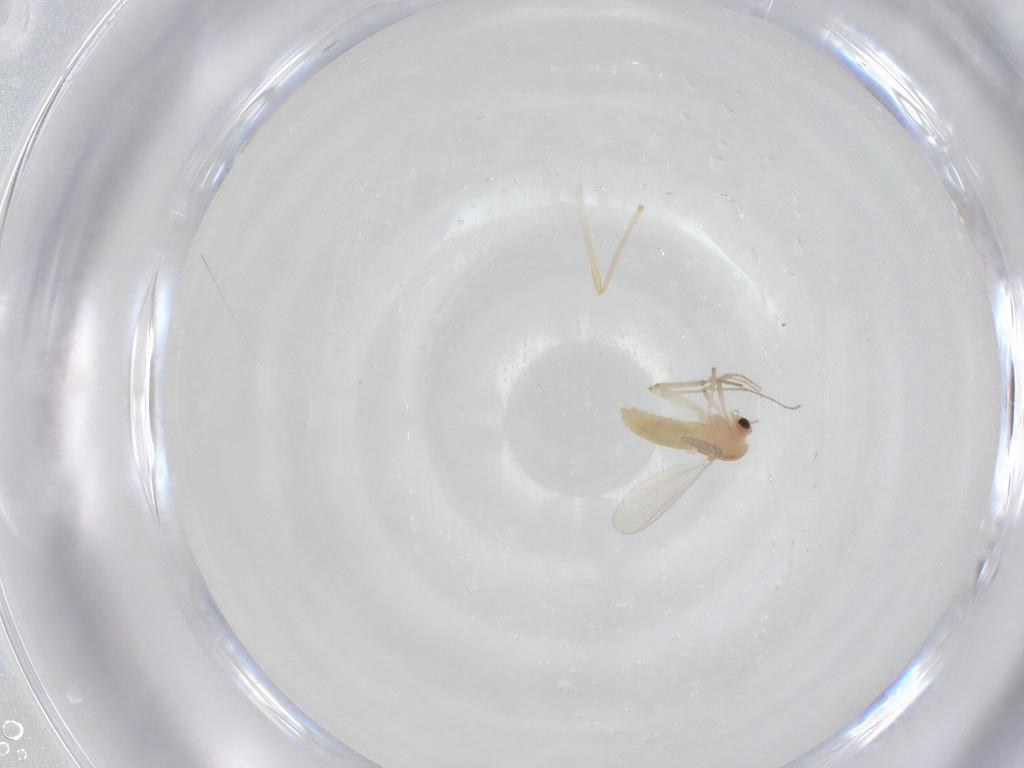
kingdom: Animalia
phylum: Arthropoda
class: Insecta
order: Diptera
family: Chironomidae
